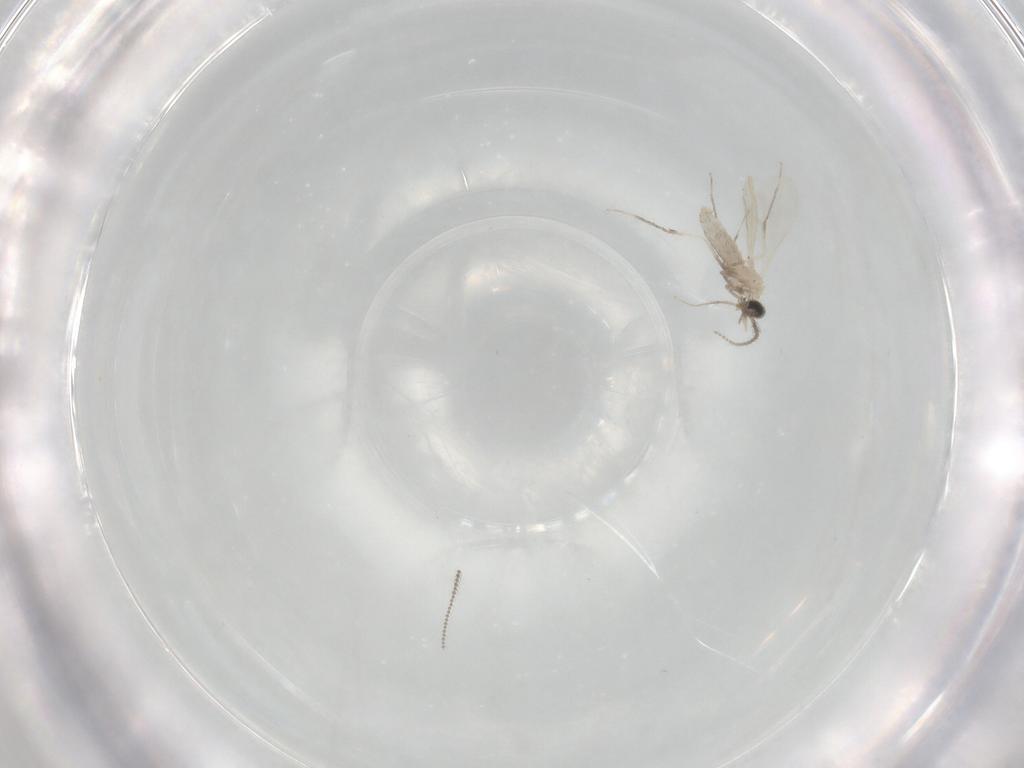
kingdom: Animalia
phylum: Arthropoda
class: Insecta
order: Diptera
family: Cecidomyiidae
